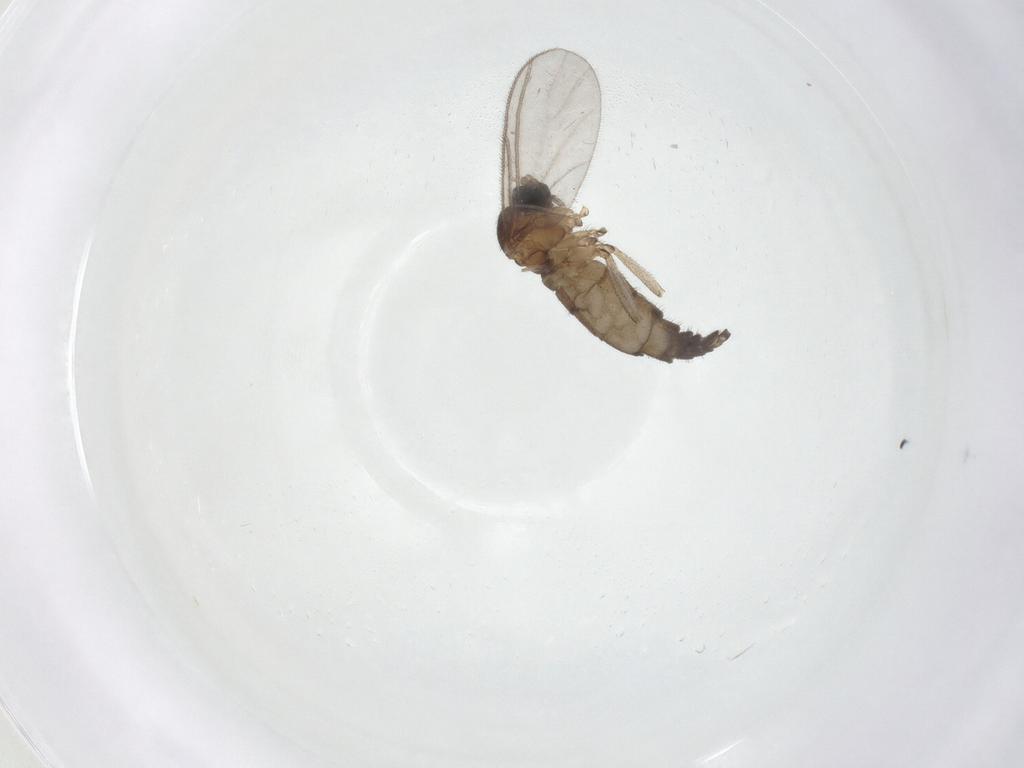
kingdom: Animalia
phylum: Arthropoda
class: Insecta
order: Diptera
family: Sciaridae
